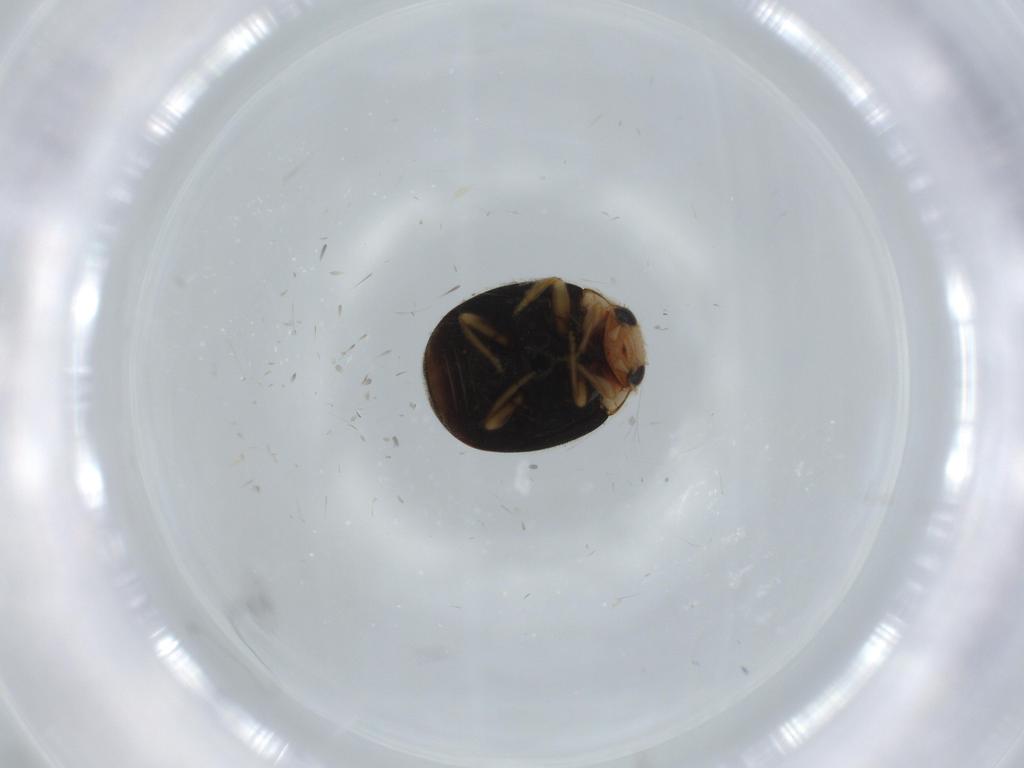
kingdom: Animalia
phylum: Arthropoda
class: Insecta
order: Coleoptera
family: Coccinellidae
